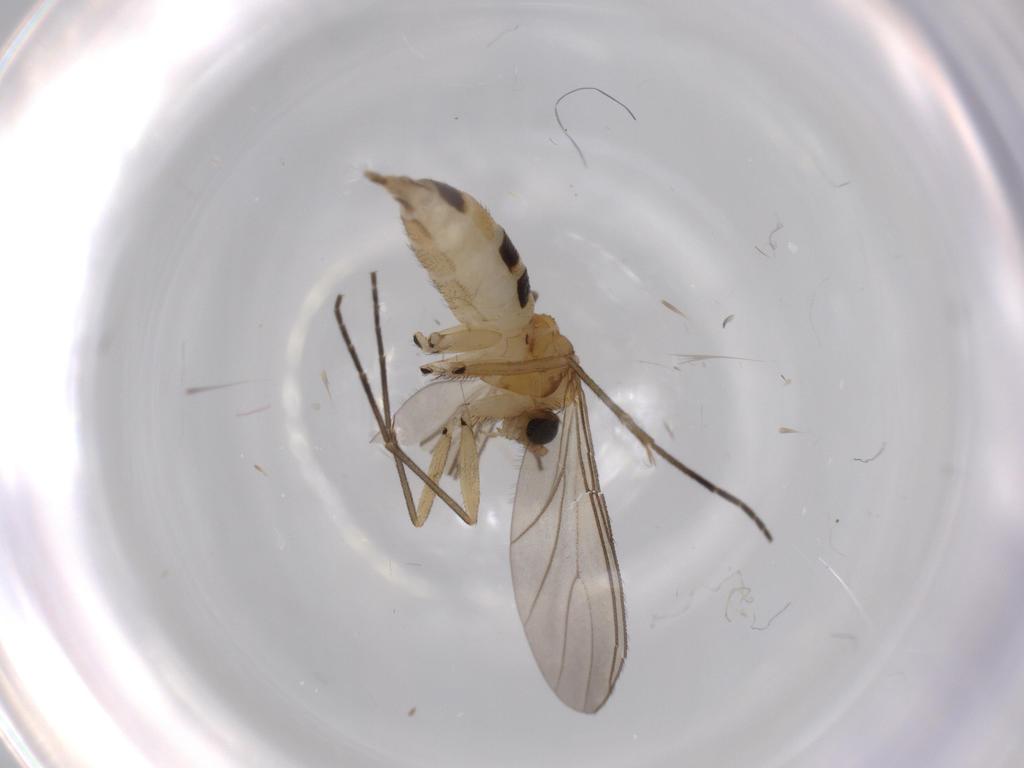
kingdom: Animalia
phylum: Arthropoda
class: Insecta
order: Diptera
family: Sciaridae
